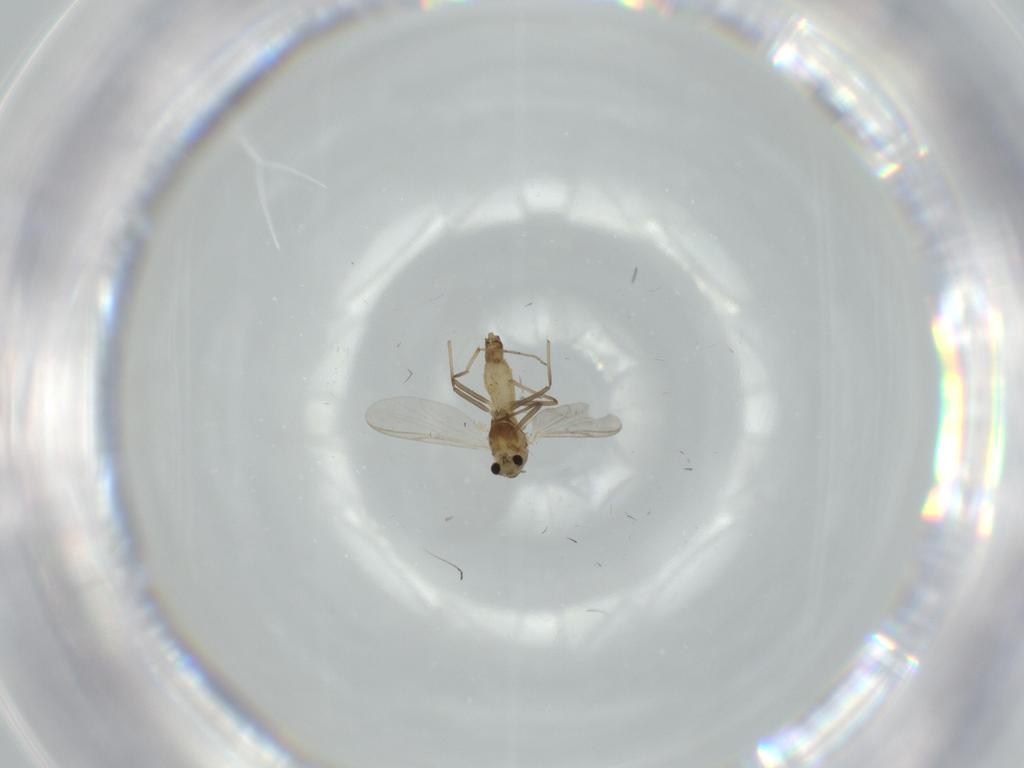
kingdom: Animalia
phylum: Arthropoda
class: Insecta
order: Diptera
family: Chironomidae
